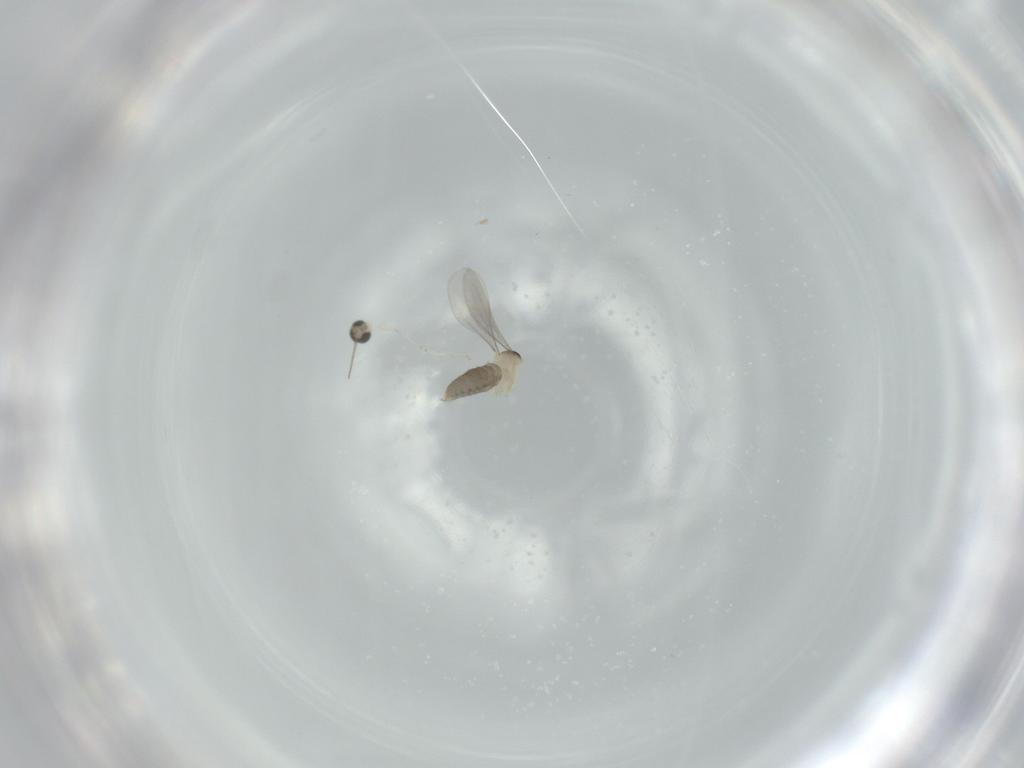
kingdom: Animalia
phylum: Arthropoda
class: Insecta
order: Diptera
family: Cecidomyiidae
